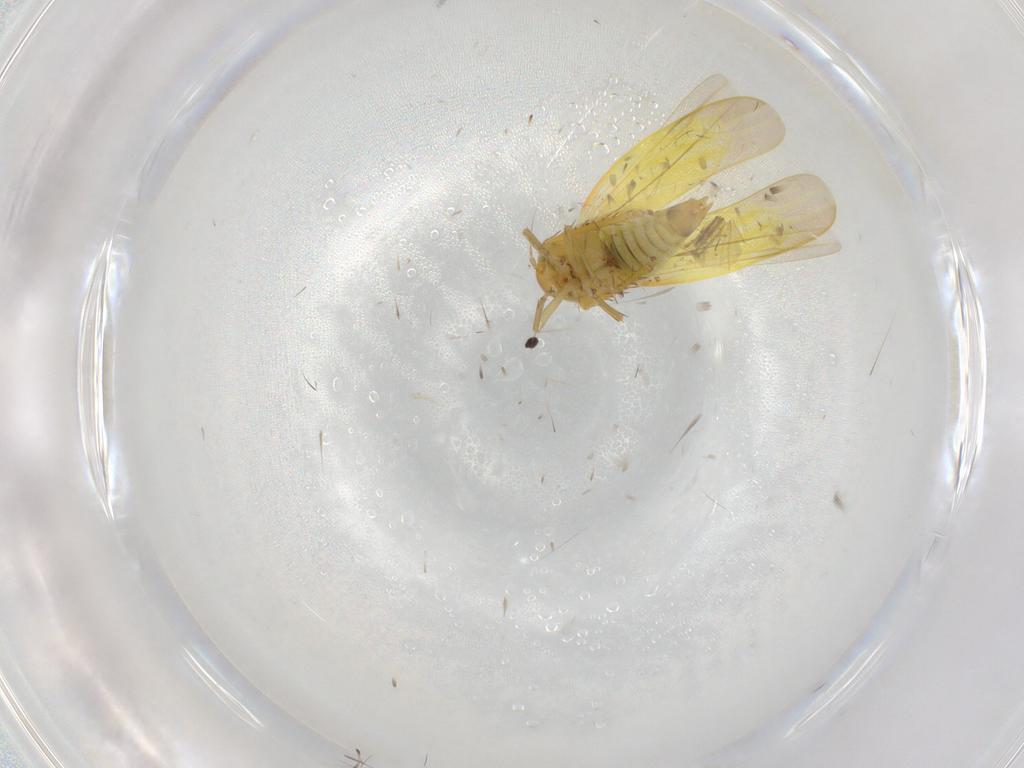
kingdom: Animalia
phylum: Arthropoda
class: Insecta
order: Hemiptera
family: Cicadellidae
